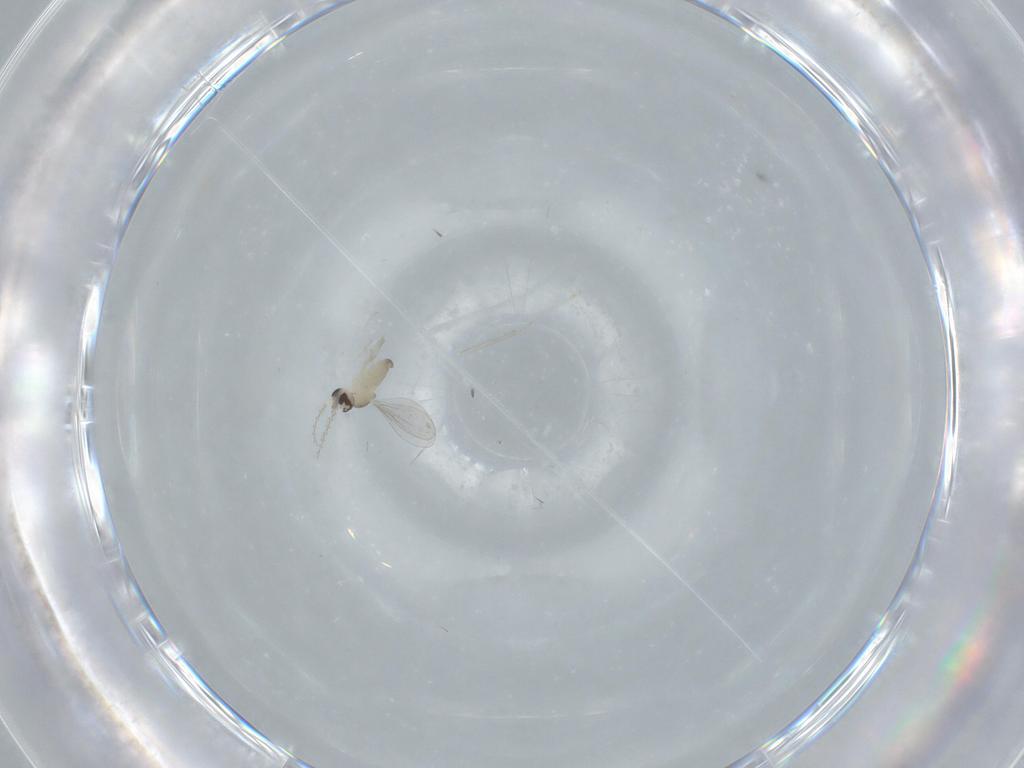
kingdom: Animalia
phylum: Arthropoda
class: Insecta
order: Diptera
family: Cecidomyiidae
